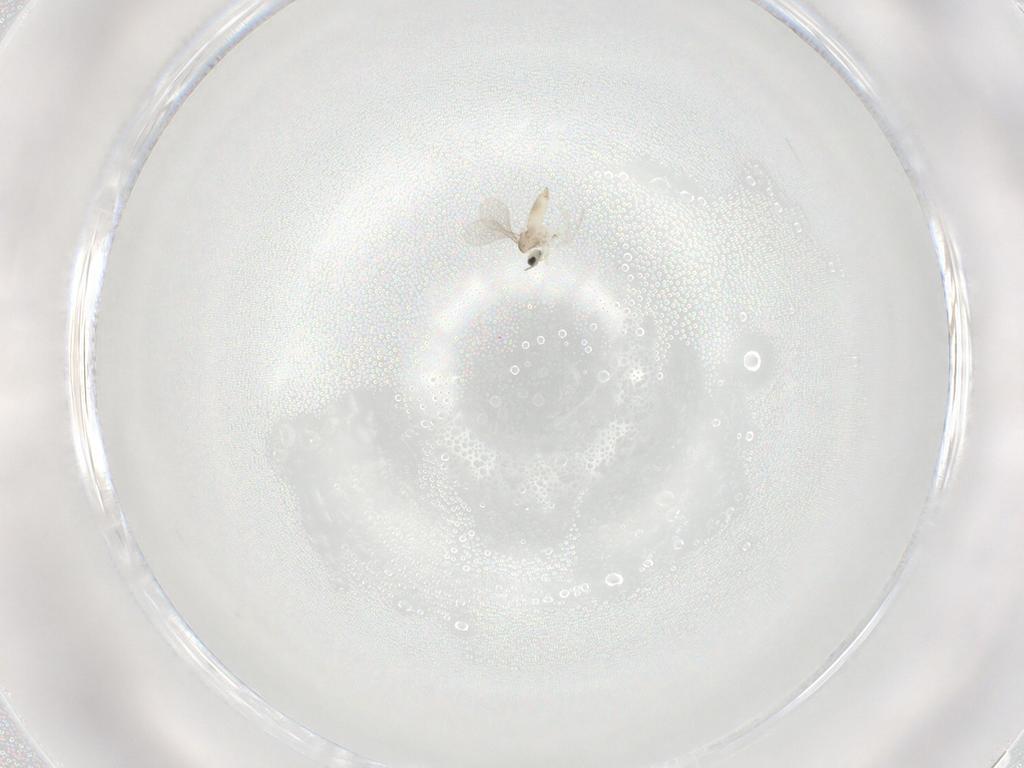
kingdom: Animalia
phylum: Arthropoda
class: Insecta
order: Diptera
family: Phoridae
